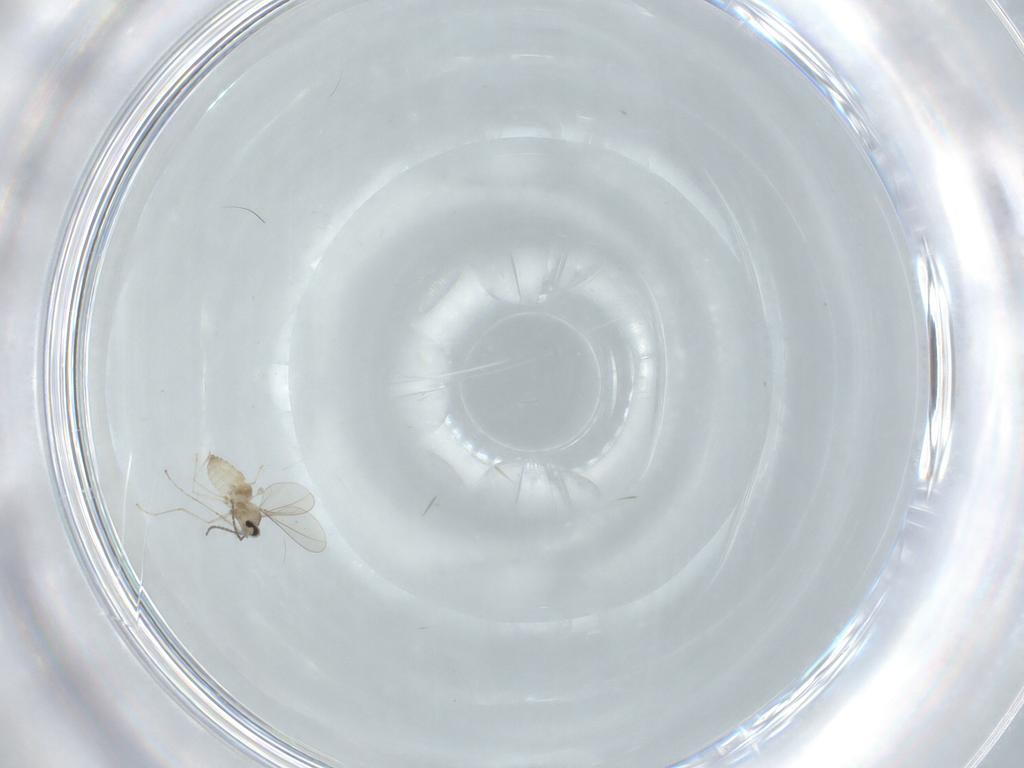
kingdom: Animalia
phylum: Arthropoda
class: Insecta
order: Diptera
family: Cecidomyiidae
